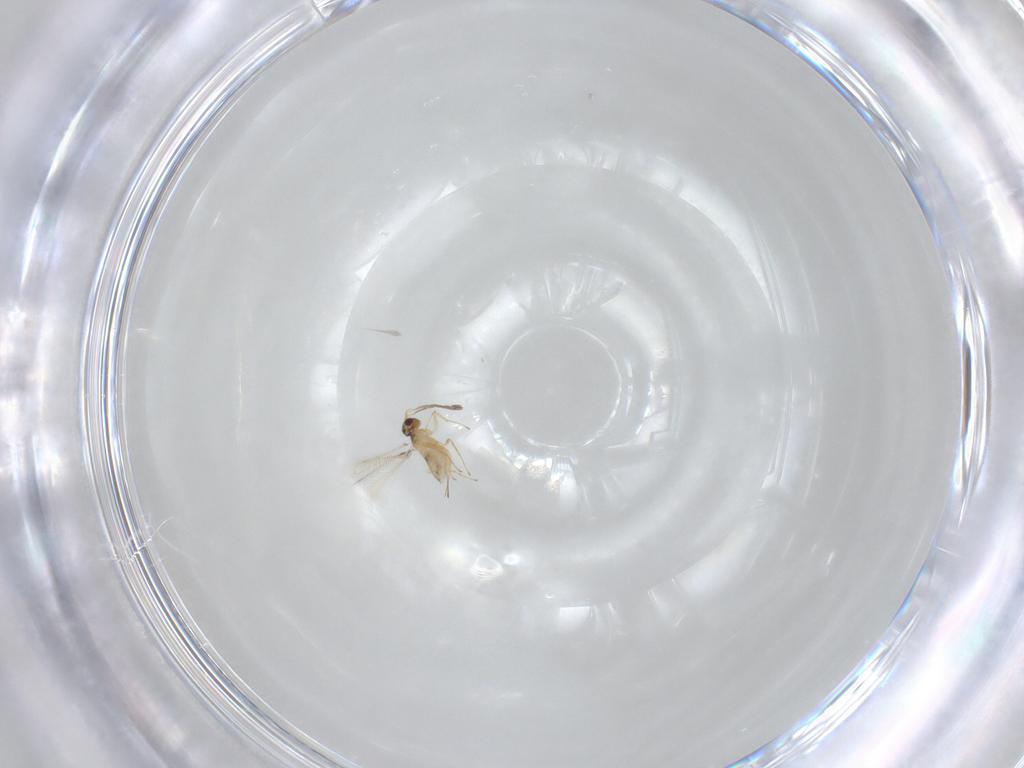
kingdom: Animalia
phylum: Arthropoda
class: Insecta
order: Hymenoptera
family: Mymaridae
